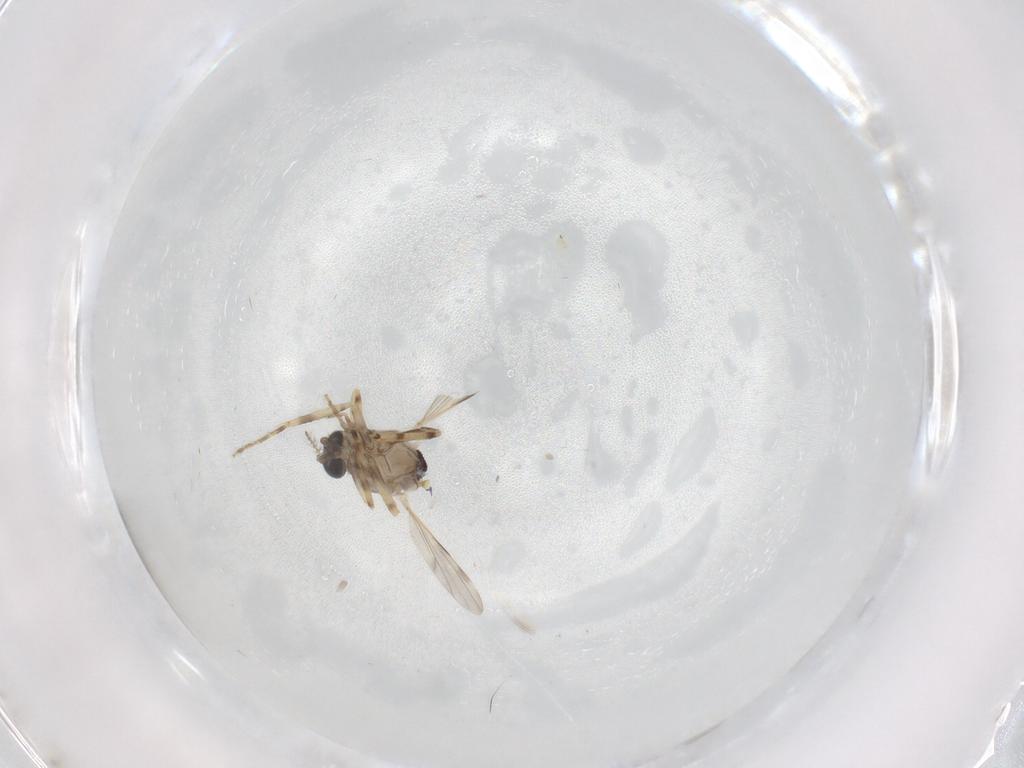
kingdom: Animalia
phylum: Arthropoda
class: Insecta
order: Diptera
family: Ceratopogonidae
